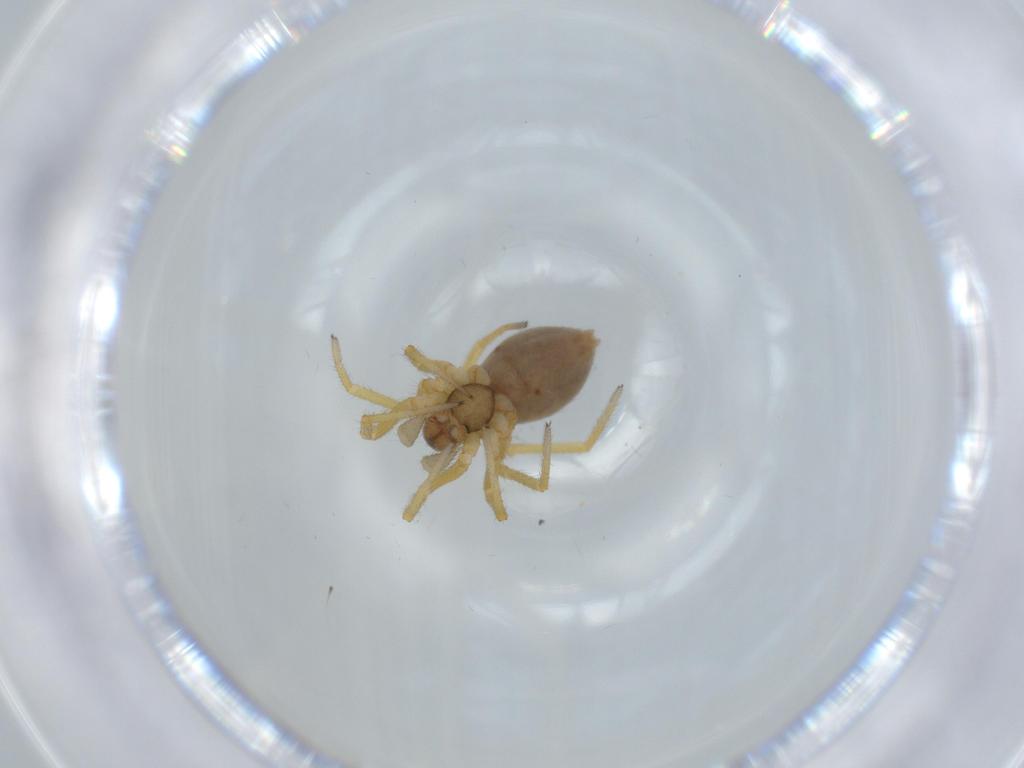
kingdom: Animalia
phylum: Arthropoda
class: Arachnida
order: Araneae
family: Linyphiidae
